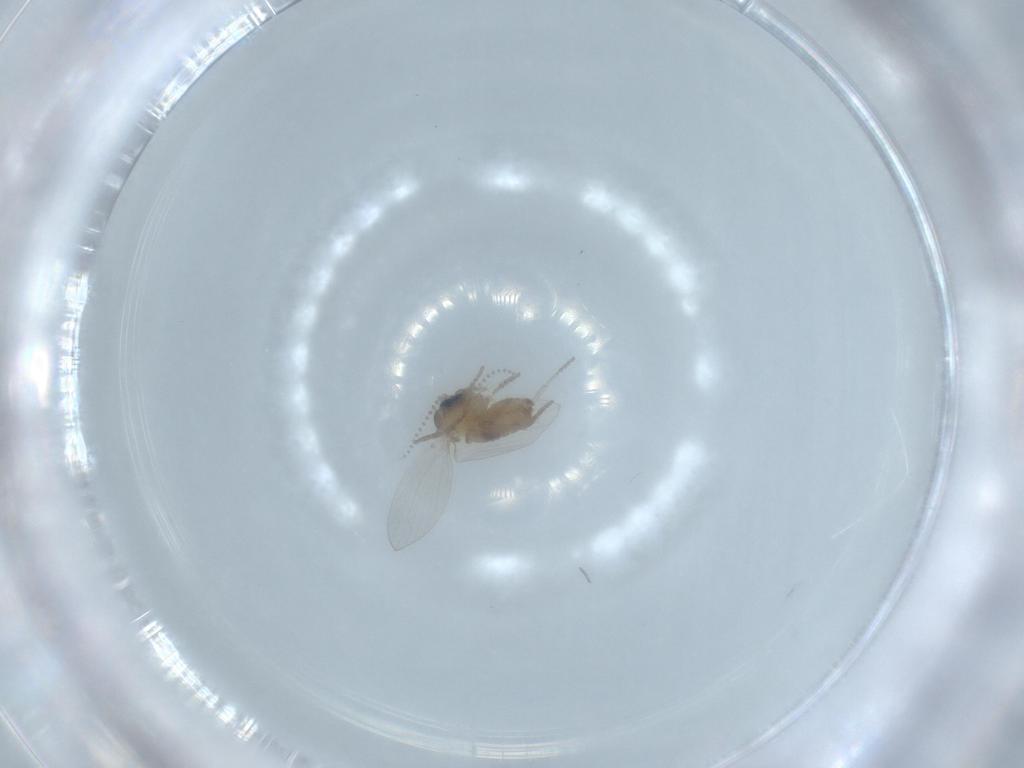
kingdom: Animalia
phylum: Arthropoda
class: Insecta
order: Diptera
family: Psychodidae
